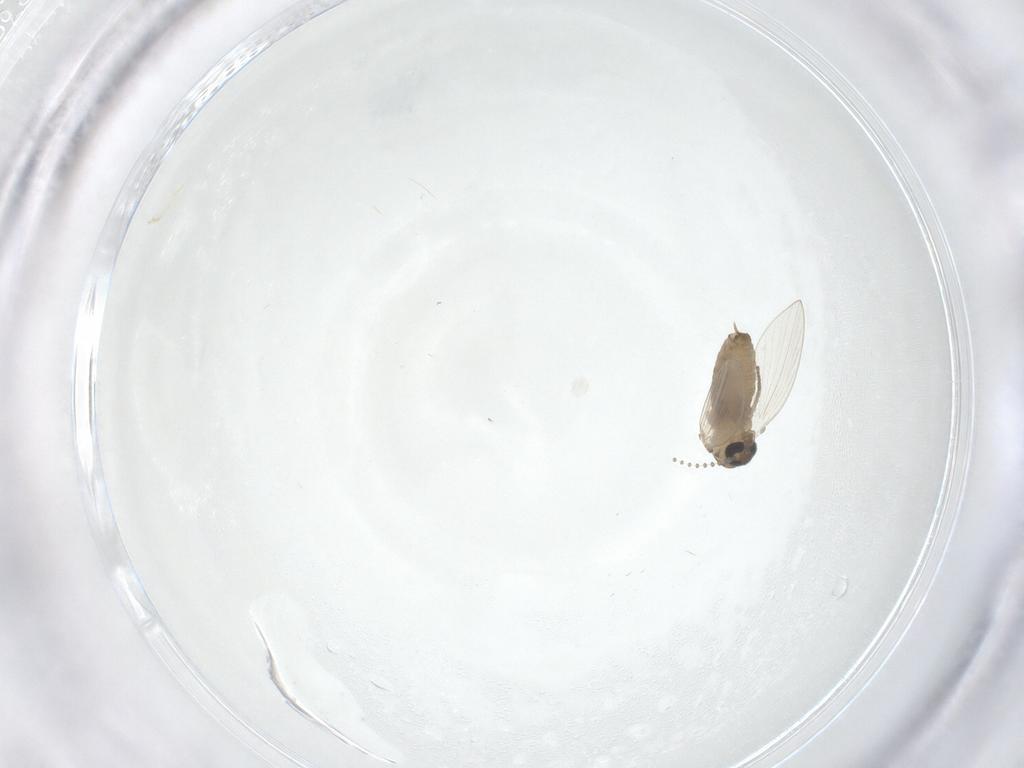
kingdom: Animalia
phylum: Arthropoda
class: Insecta
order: Diptera
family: Psychodidae
